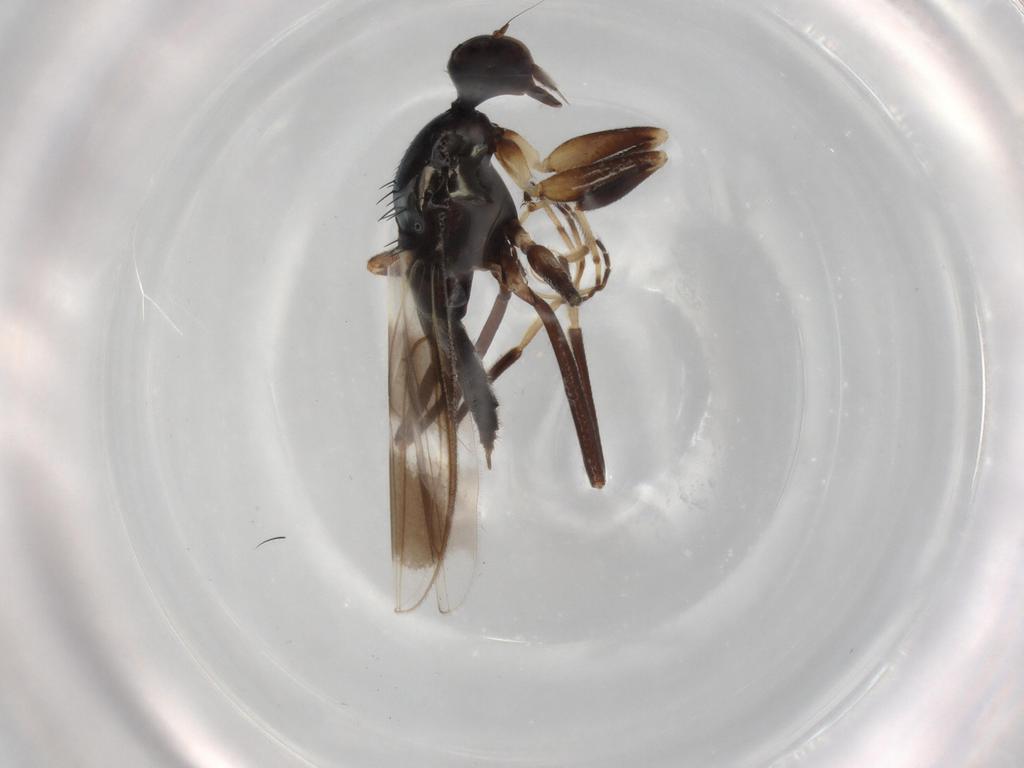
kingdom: Animalia
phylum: Arthropoda
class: Insecta
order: Diptera
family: Hybotidae
